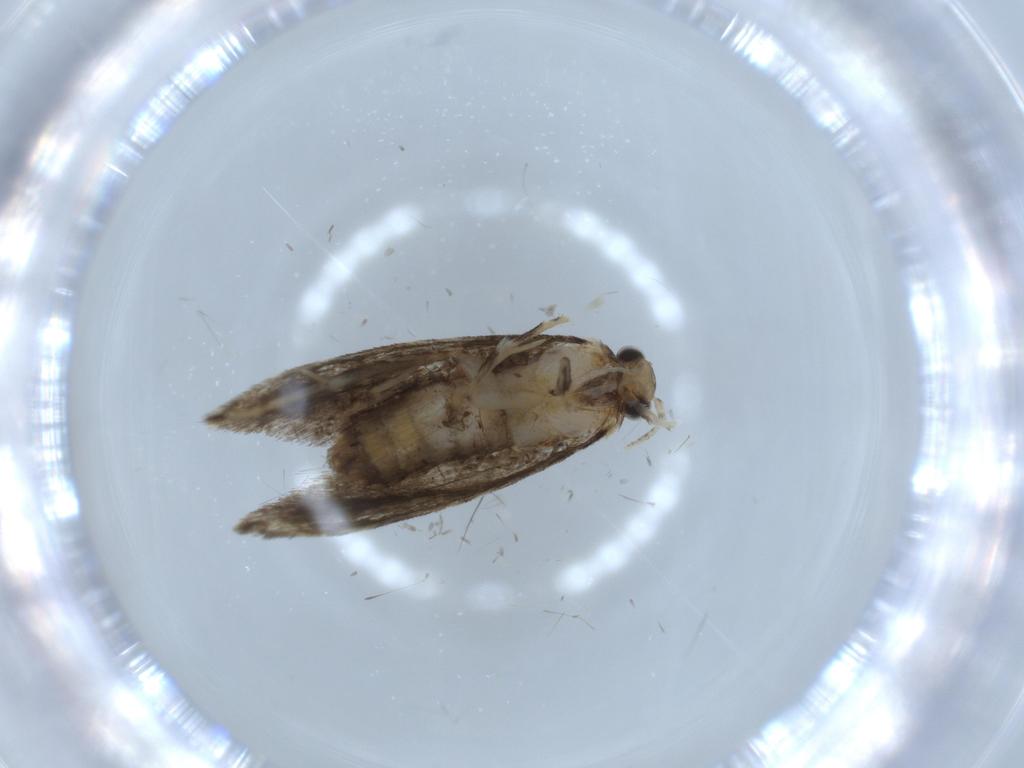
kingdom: Animalia
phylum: Arthropoda
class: Insecta
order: Lepidoptera
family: Tineidae
